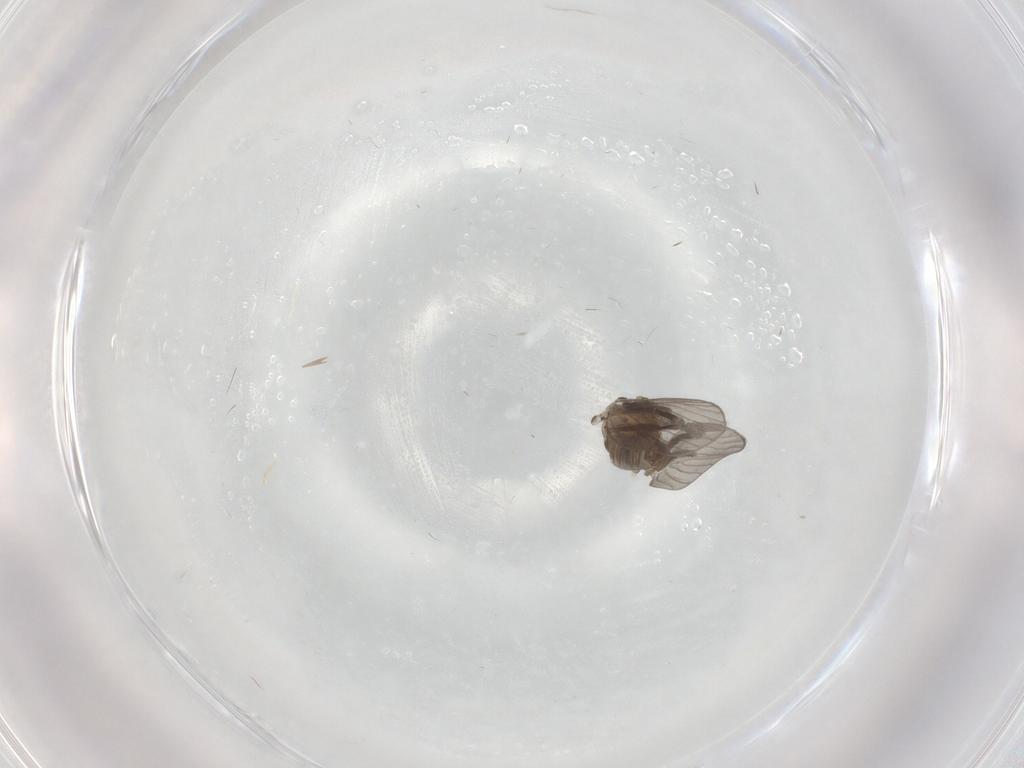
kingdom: Animalia
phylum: Arthropoda
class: Insecta
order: Diptera
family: Psychodidae
